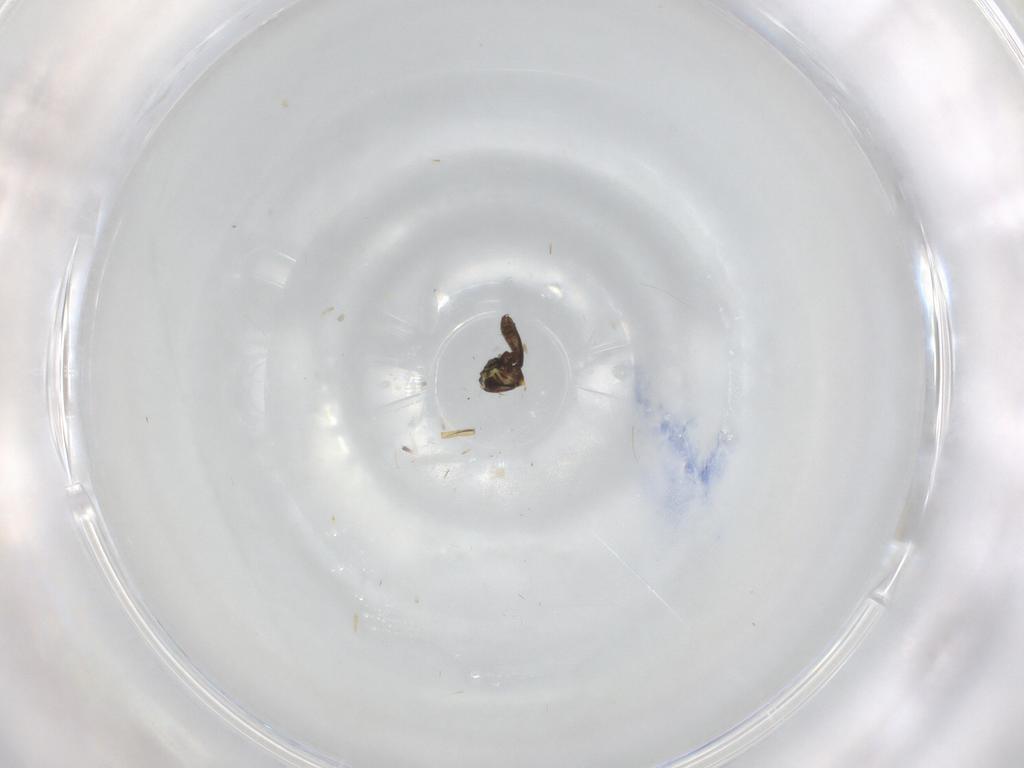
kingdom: Animalia
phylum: Arthropoda
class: Insecta
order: Diptera
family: Ceratopogonidae
